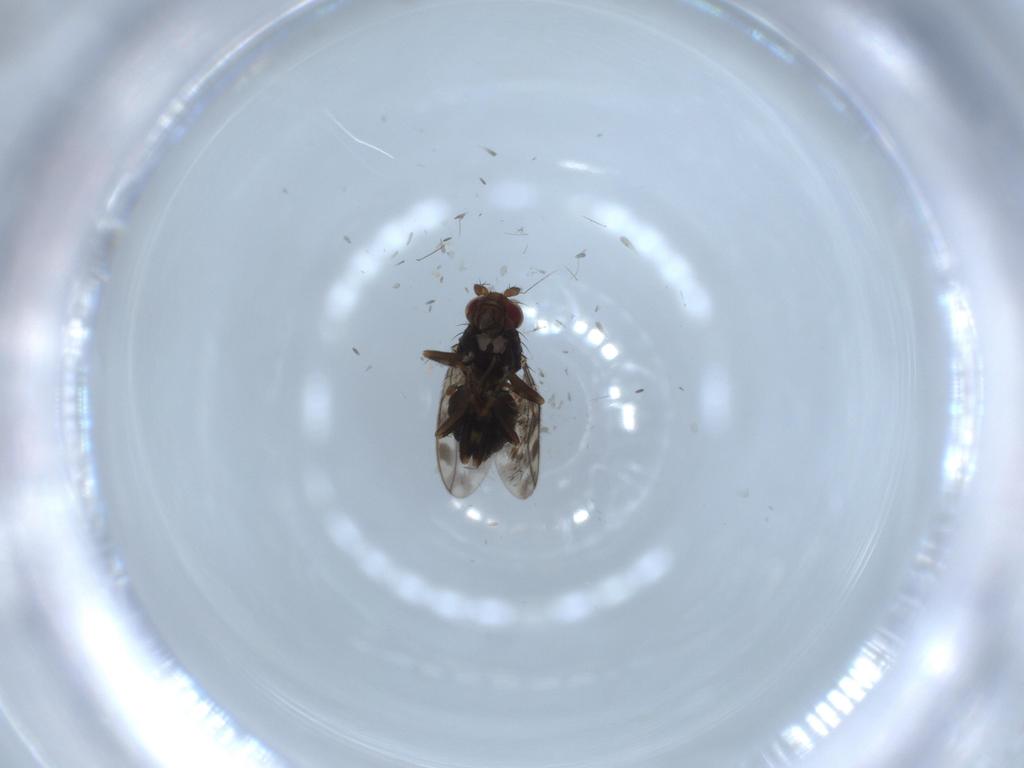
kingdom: Animalia
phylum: Arthropoda
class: Insecta
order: Diptera
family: Sphaeroceridae
